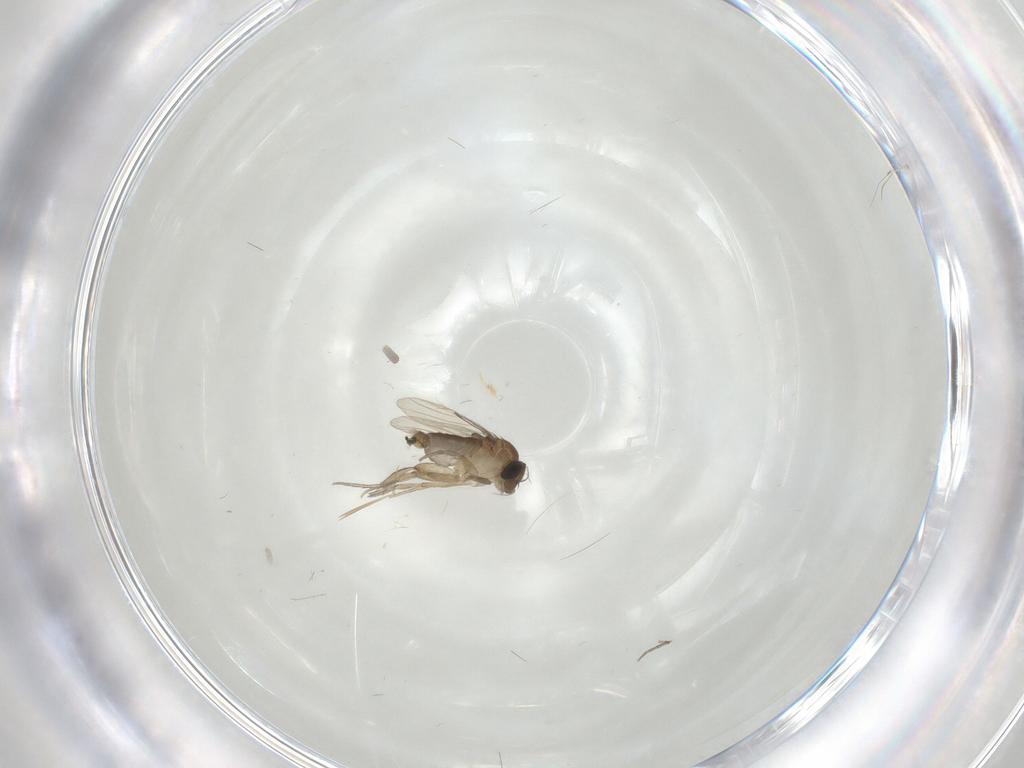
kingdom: Animalia
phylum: Arthropoda
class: Insecta
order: Diptera
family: Phoridae
